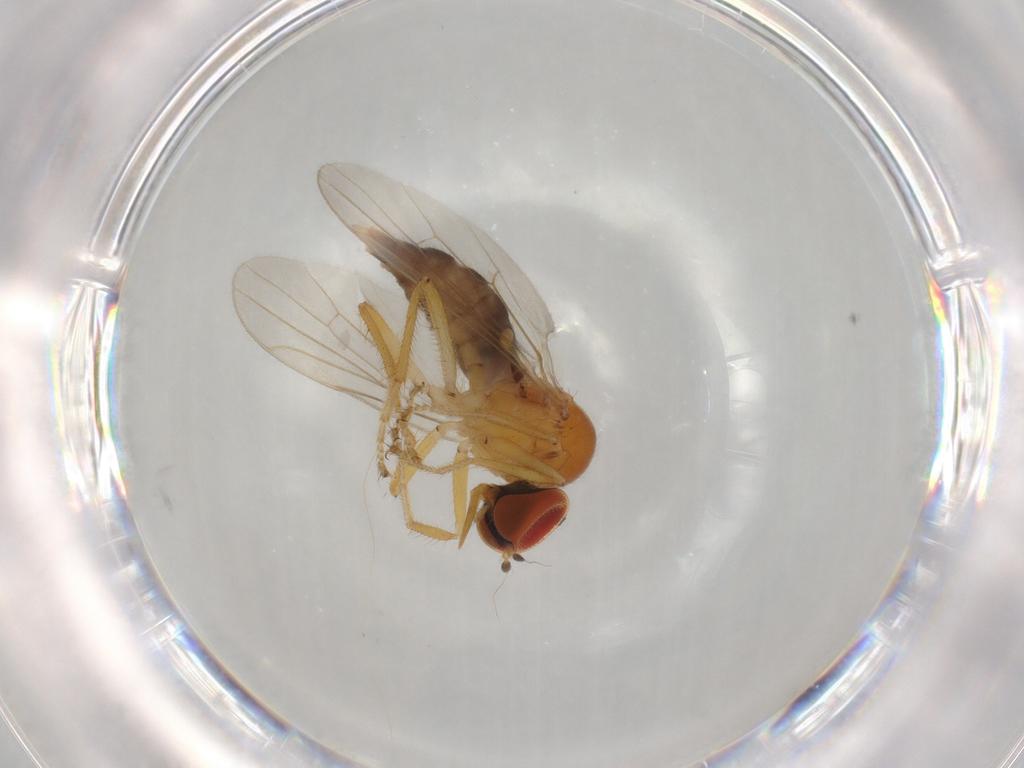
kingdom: Animalia
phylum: Arthropoda
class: Insecta
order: Diptera
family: Hybotidae
